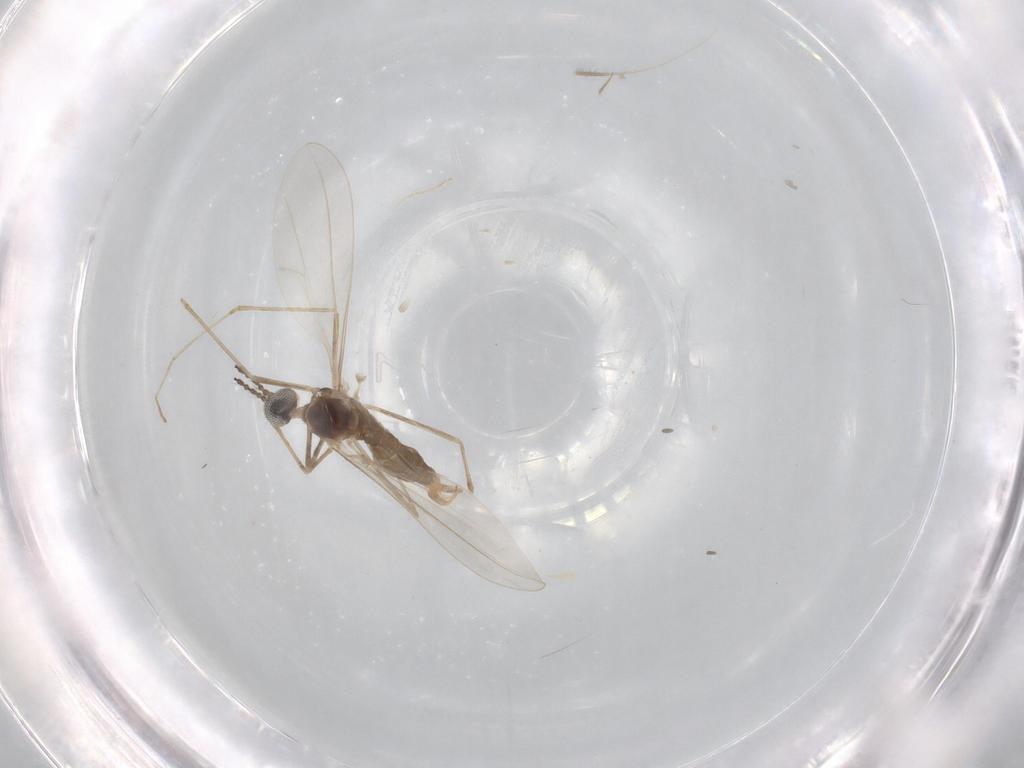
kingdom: Animalia
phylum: Arthropoda
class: Insecta
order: Diptera
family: Cecidomyiidae
